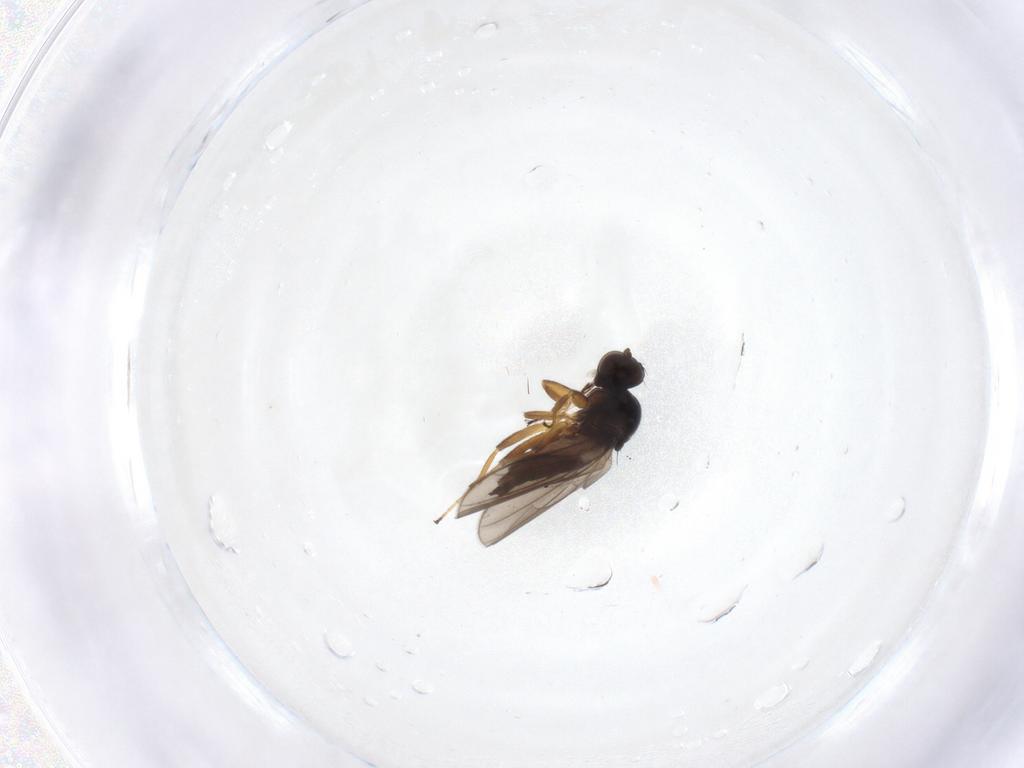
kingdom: Animalia
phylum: Arthropoda
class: Insecta
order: Diptera
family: Hybotidae
